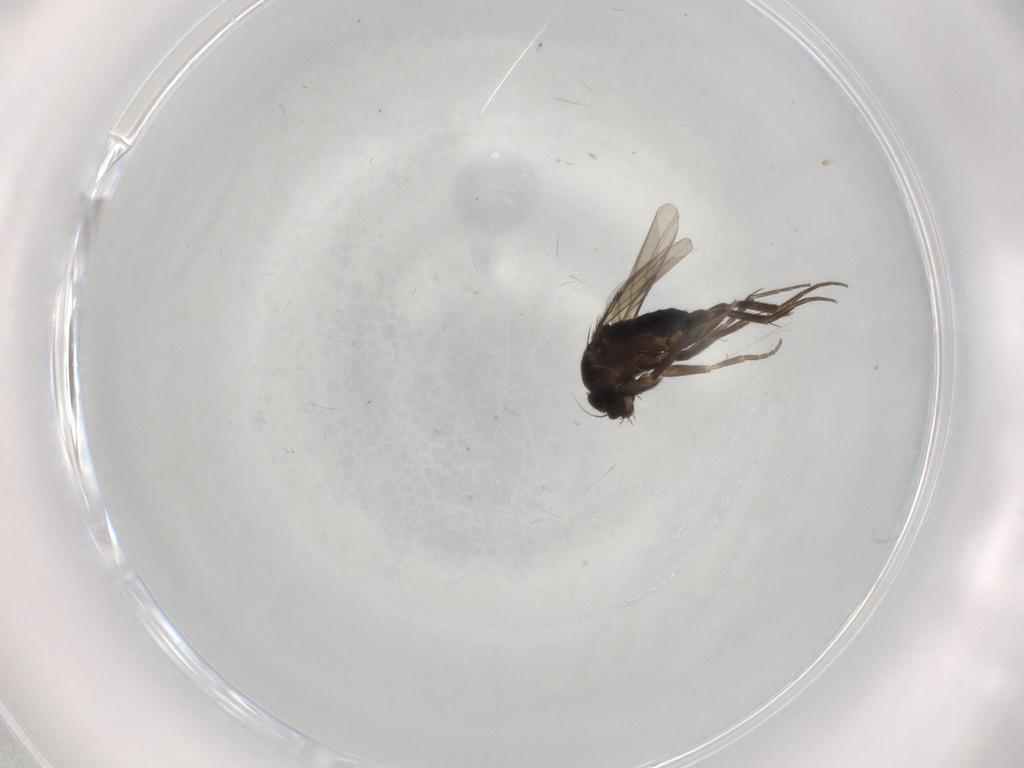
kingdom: Animalia
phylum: Arthropoda
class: Insecta
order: Diptera
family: Phoridae
